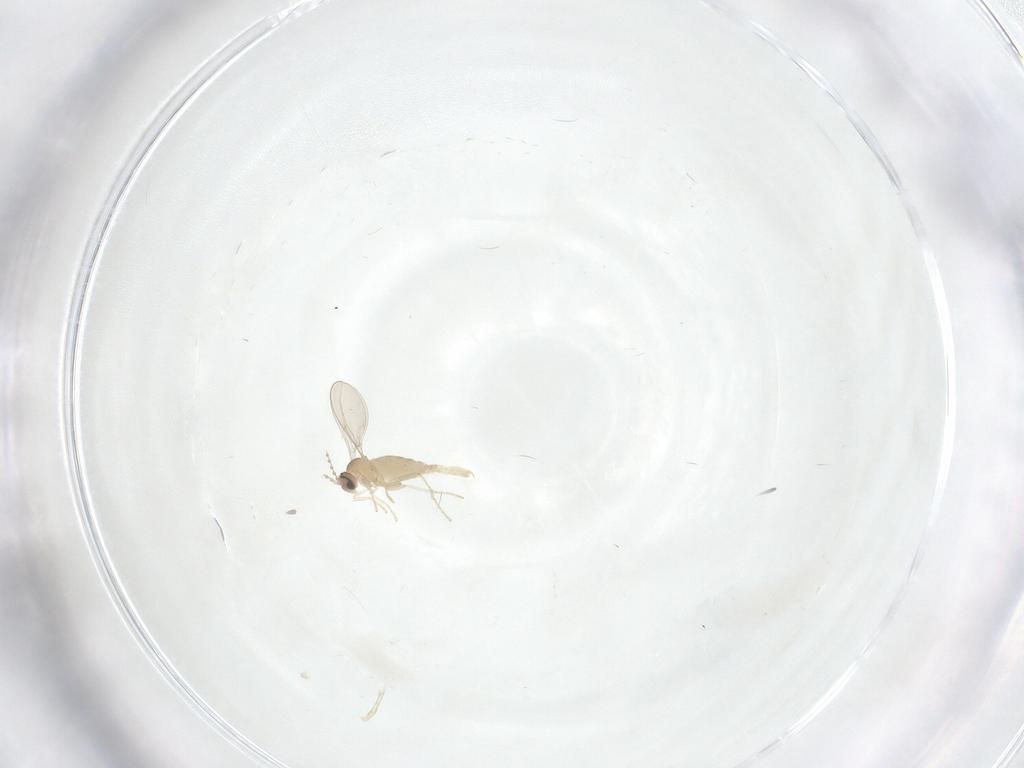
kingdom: Animalia
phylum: Arthropoda
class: Insecta
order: Diptera
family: Cecidomyiidae
